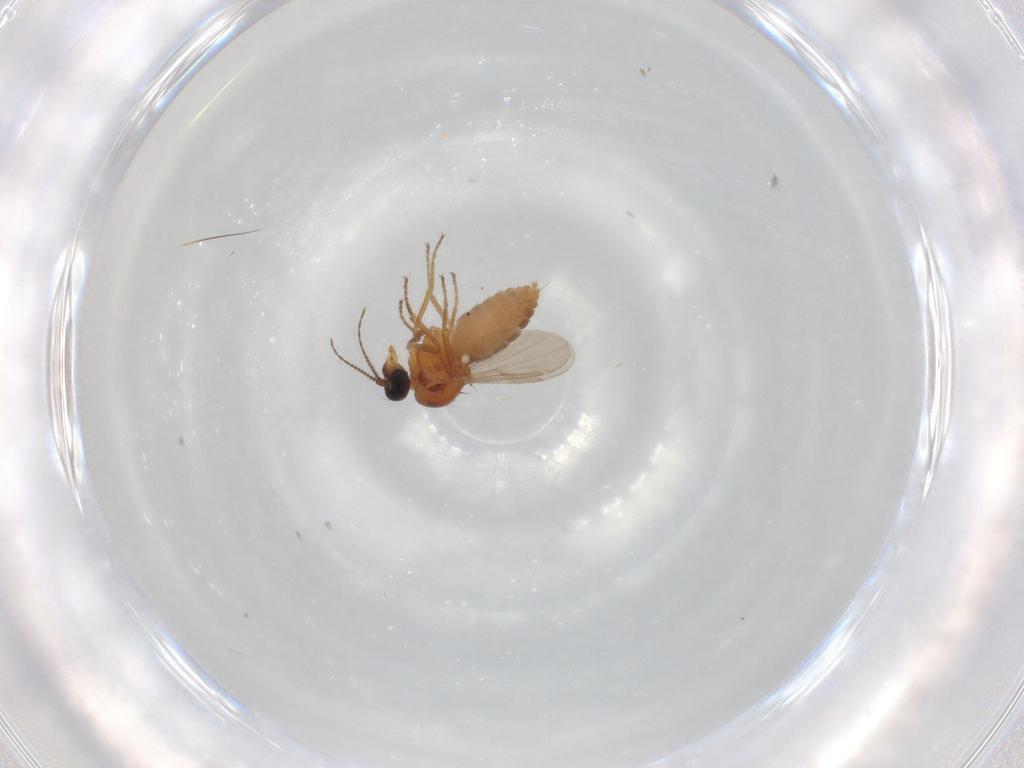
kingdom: Animalia
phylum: Arthropoda
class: Insecta
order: Diptera
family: Ceratopogonidae
